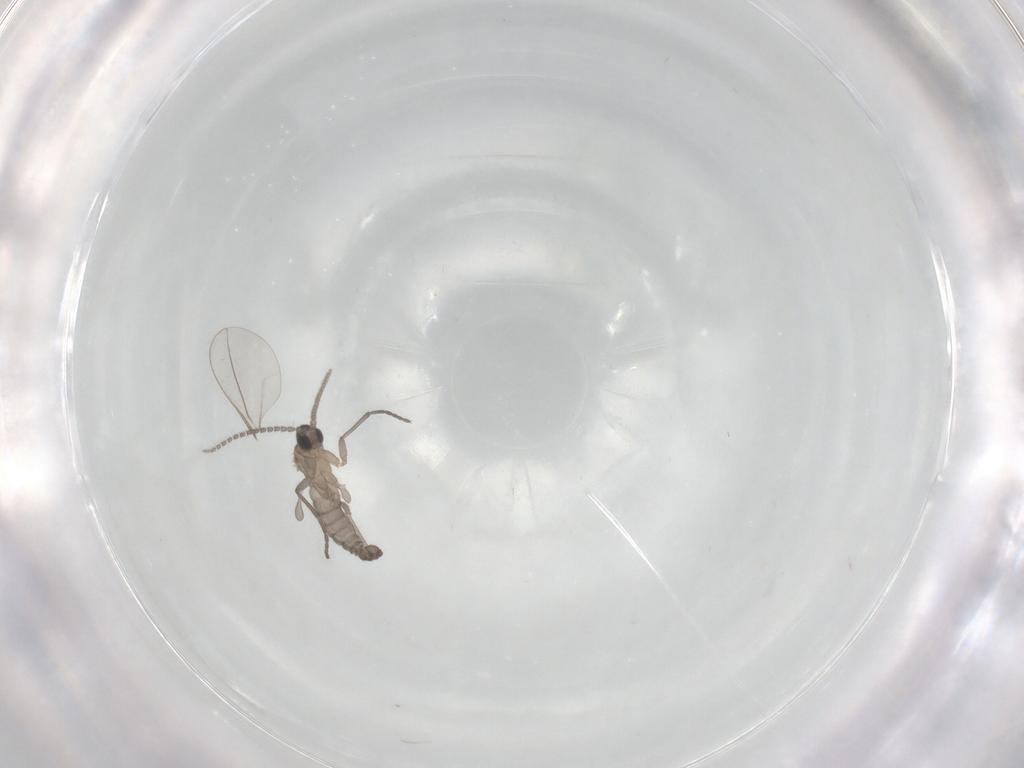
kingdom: Animalia
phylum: Arthropoda
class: Insecta
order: Diptera
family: Sciaridae
